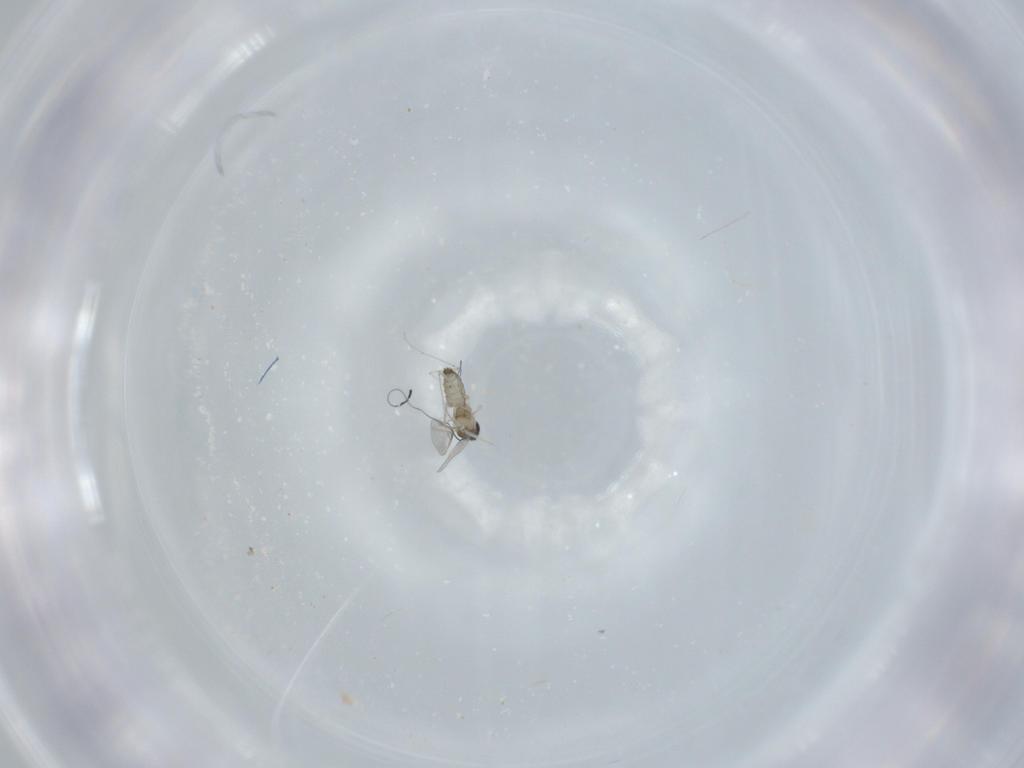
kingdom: Animalia
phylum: Arthropoda
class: Insecta
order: Diptera
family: Cecidomyiidae
